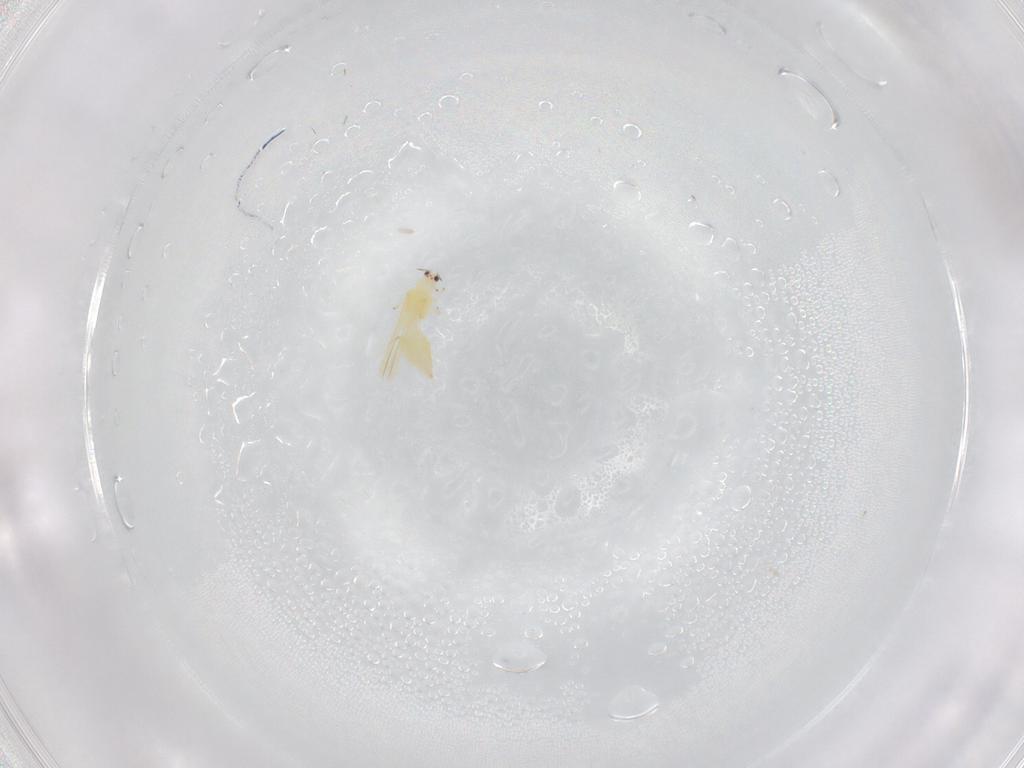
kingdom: Animalia
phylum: Arthropoda
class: Insecta
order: Thysanoptera
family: Thripidae
